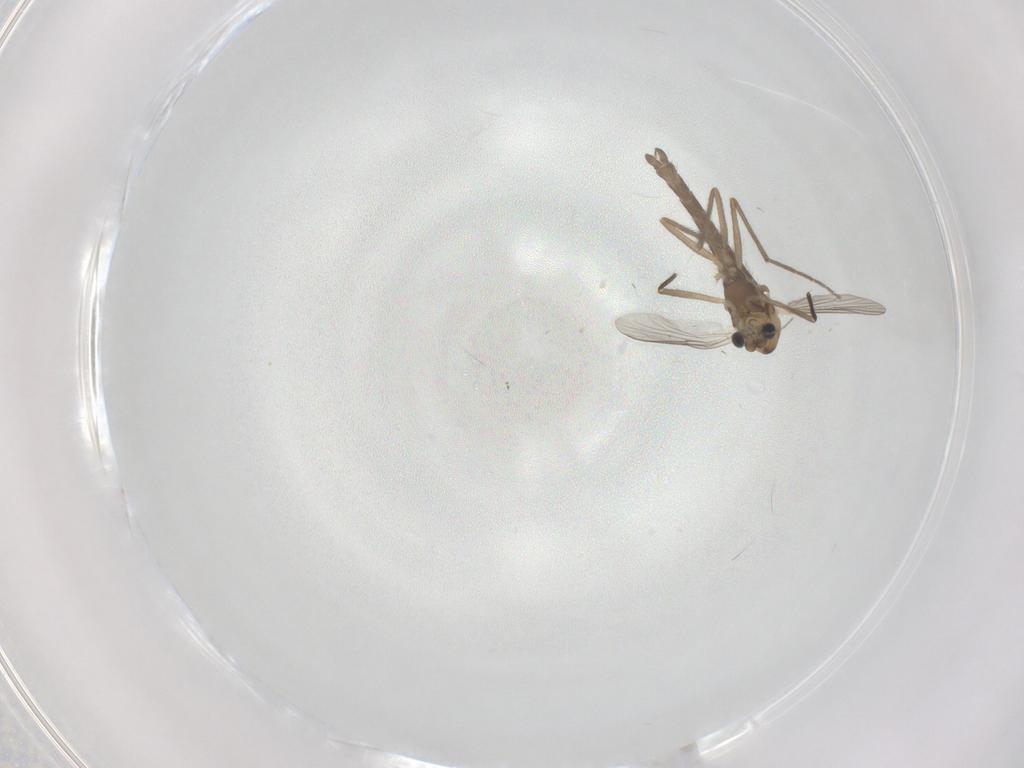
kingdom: Animalia
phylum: Arthropoda
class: Insecta
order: Diptera
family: Chironomidae
